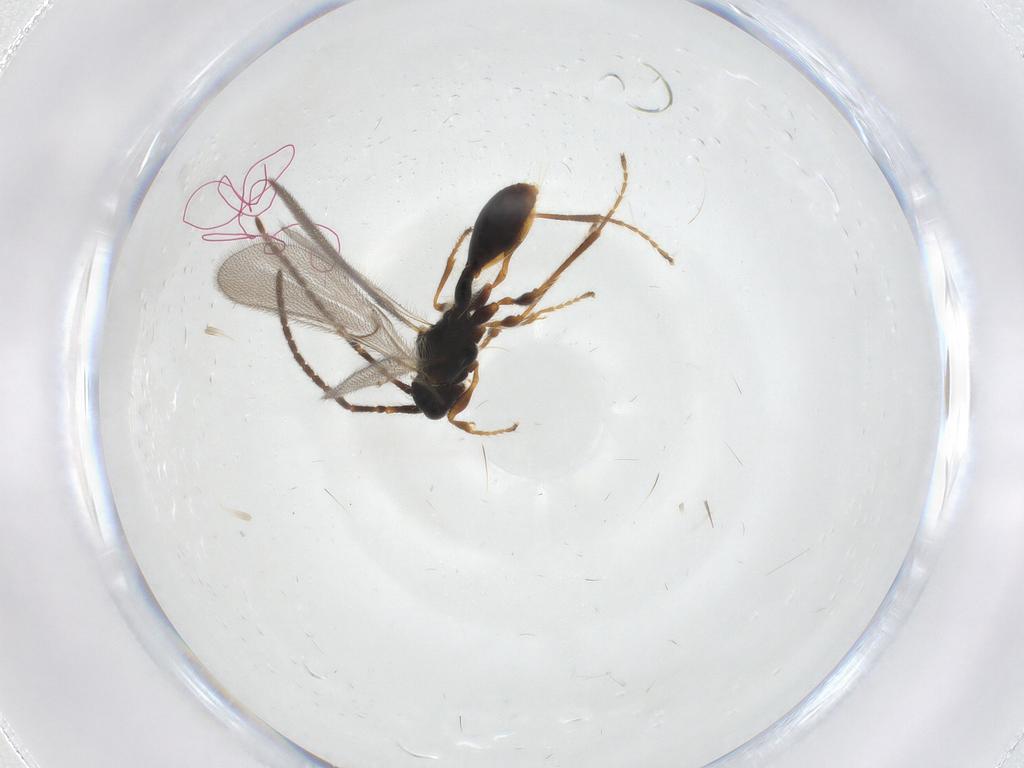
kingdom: Animalia
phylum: Arthropoda
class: Insecta
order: Hymenoptera
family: Diapriidae
